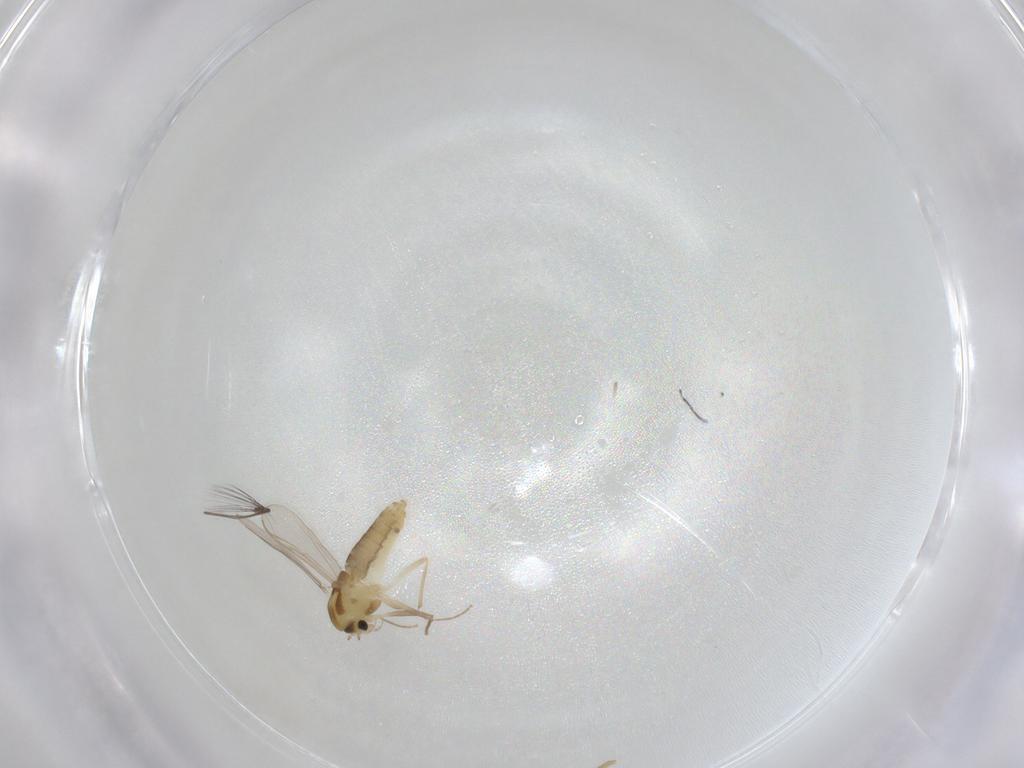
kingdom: Animalia
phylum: Arthropoda
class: Insecta
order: Diptera
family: Chironomidae
